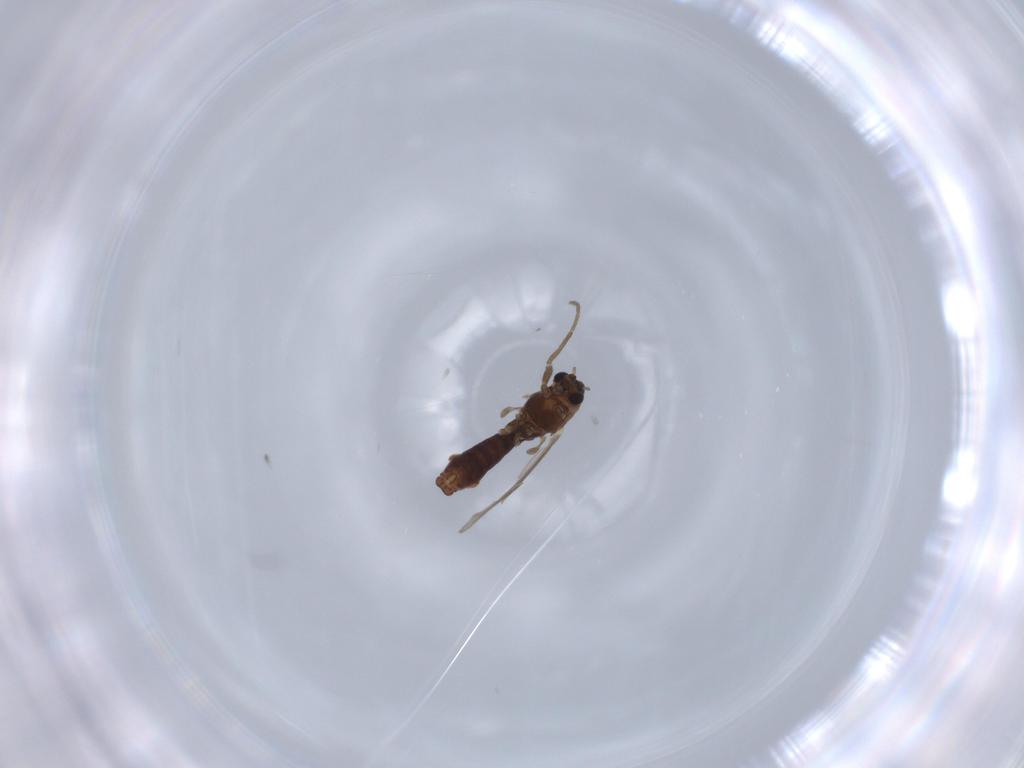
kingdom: Animalia
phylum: Arthropoda
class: Insecta
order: Diptera
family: Chironomidae
